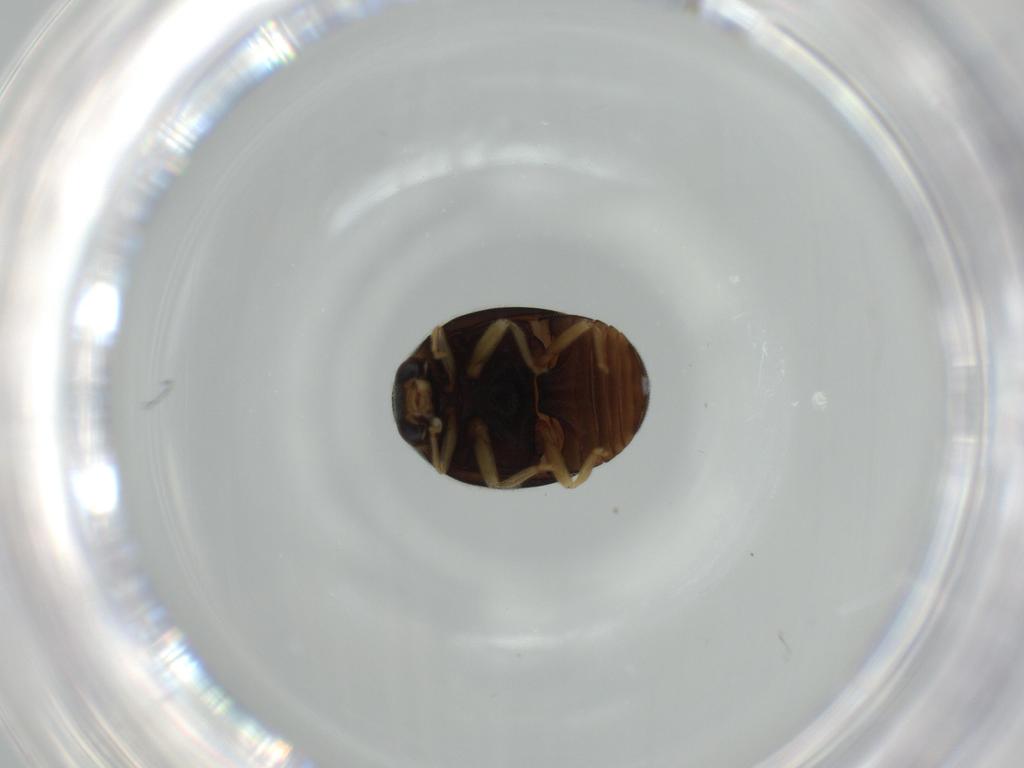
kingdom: Animalia
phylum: Arthropoda
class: Insecta
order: Coleoptera
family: Coccinellidae
